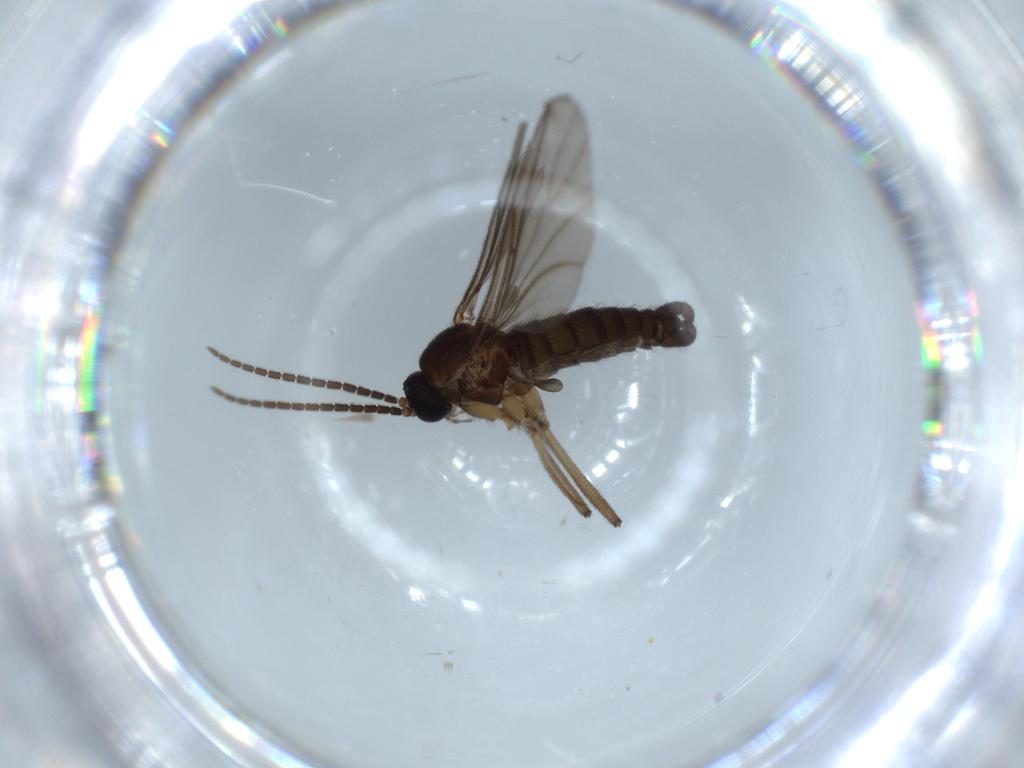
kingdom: Animalia
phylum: Arthropoda
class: Insecta
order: Diptera
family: Sciaridae
